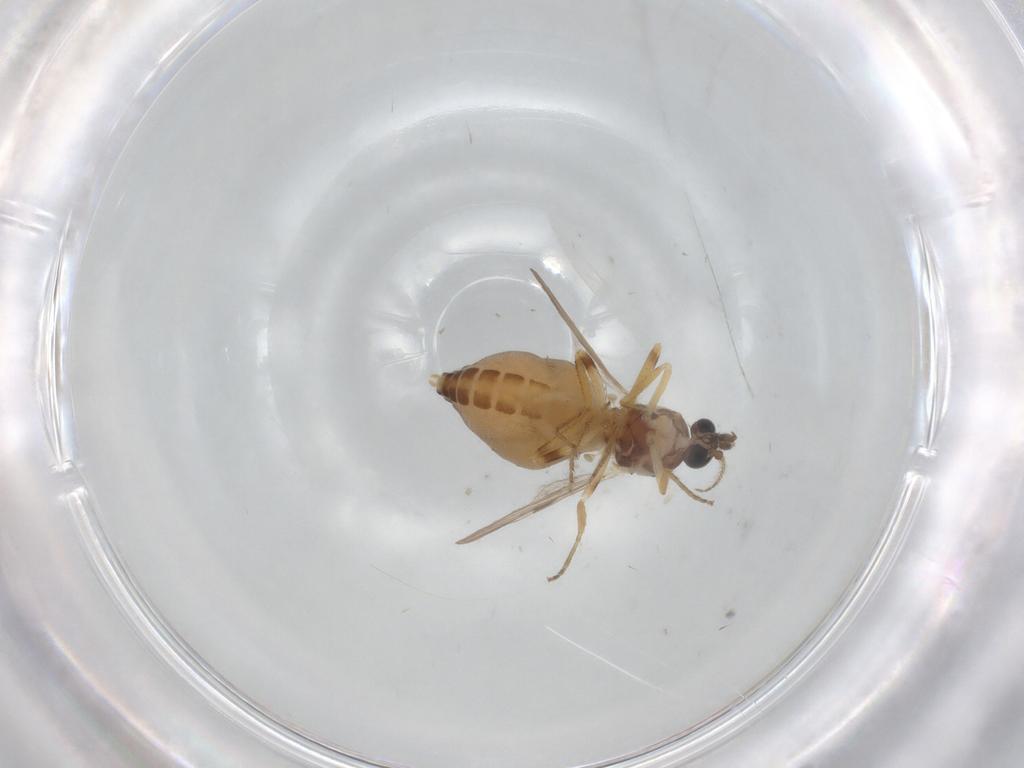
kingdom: Animalia
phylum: Arthropoda
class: Insecta
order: Diptera
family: Ceratopogonidae
